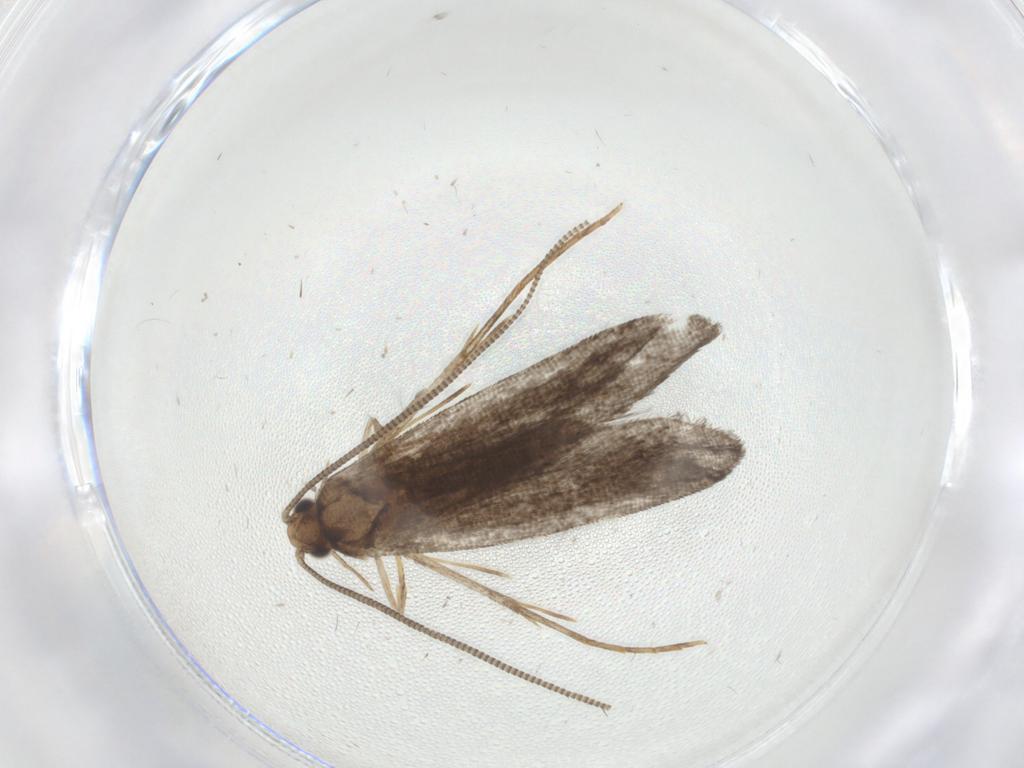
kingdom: Animalia
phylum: Arthropoda
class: Insecta
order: Lepidoptera
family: Tineidae
